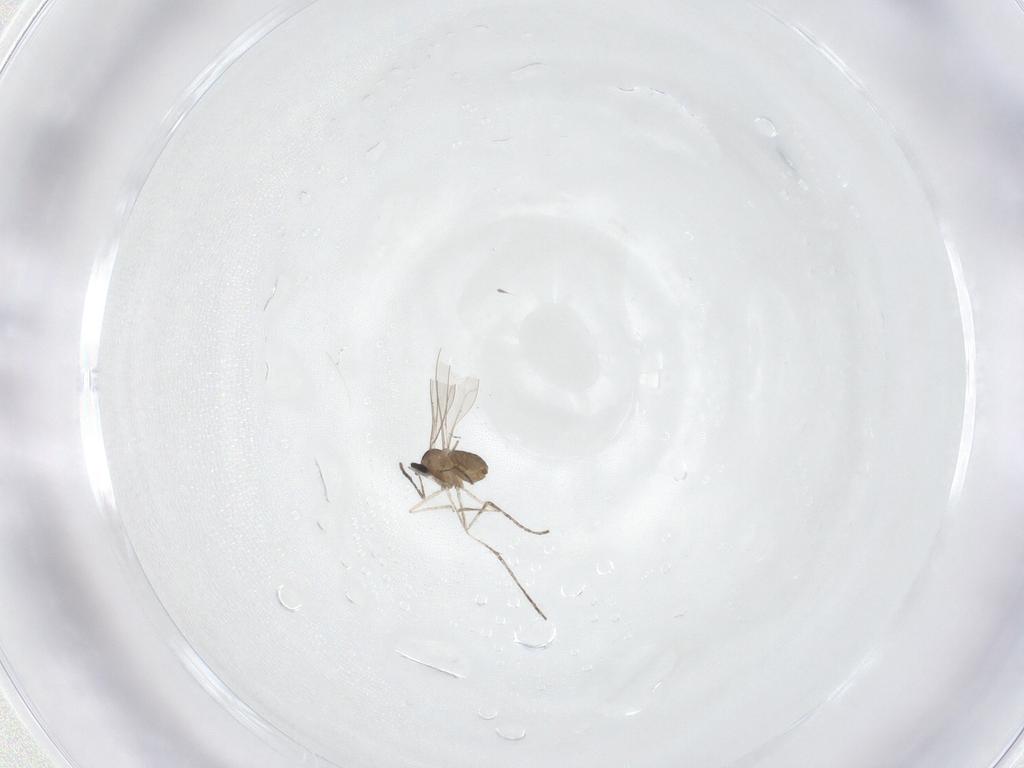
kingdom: Animalia
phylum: Arthropoda
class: Insecta
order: Diptera
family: Cecidomyiidae
